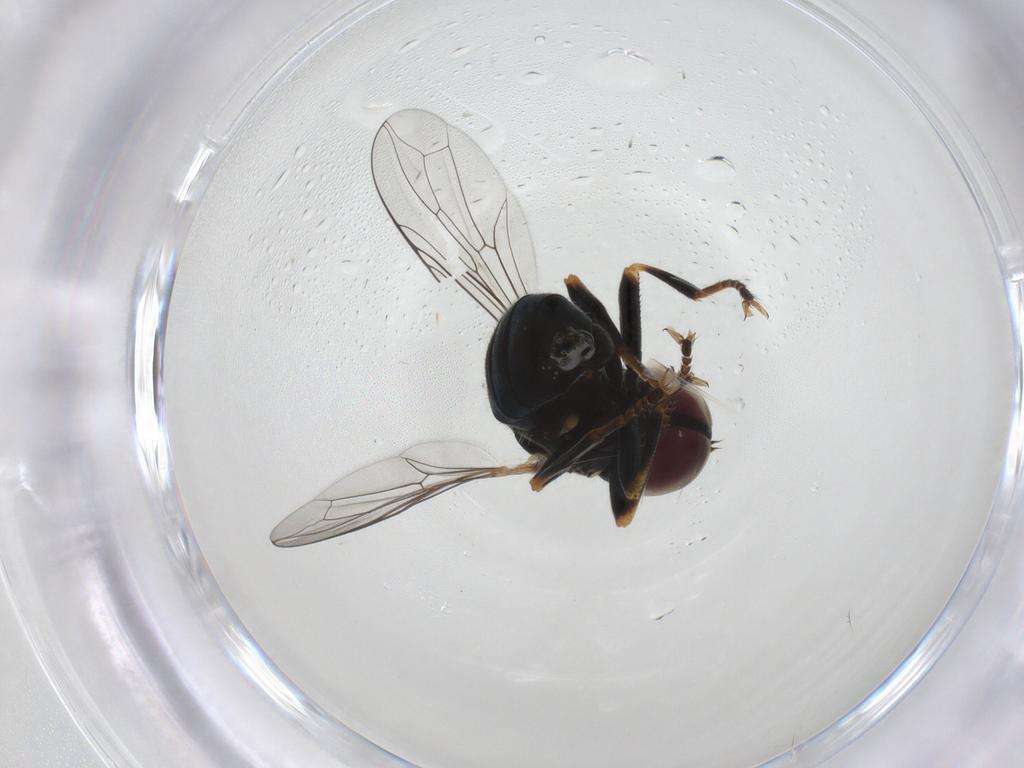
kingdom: Animalia
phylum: Arthropoda
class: Insecta
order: Diptera
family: Pipunculidae
